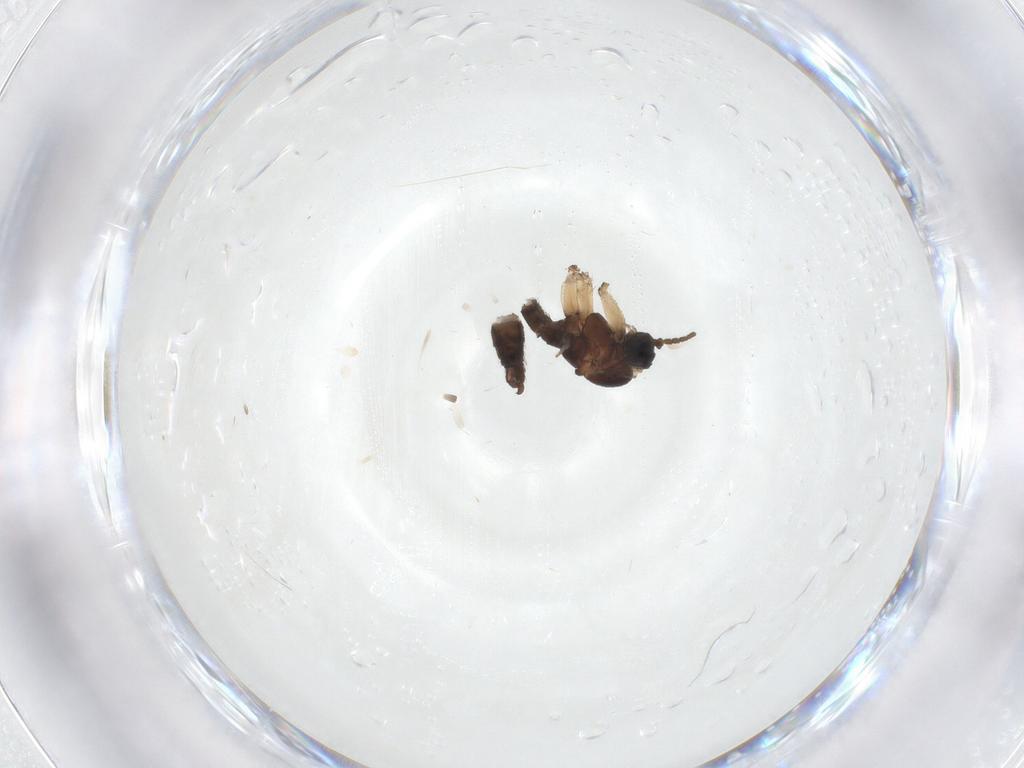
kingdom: Animalia
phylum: Arthropoda
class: Insecta
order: Diptera
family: Sciaridae
